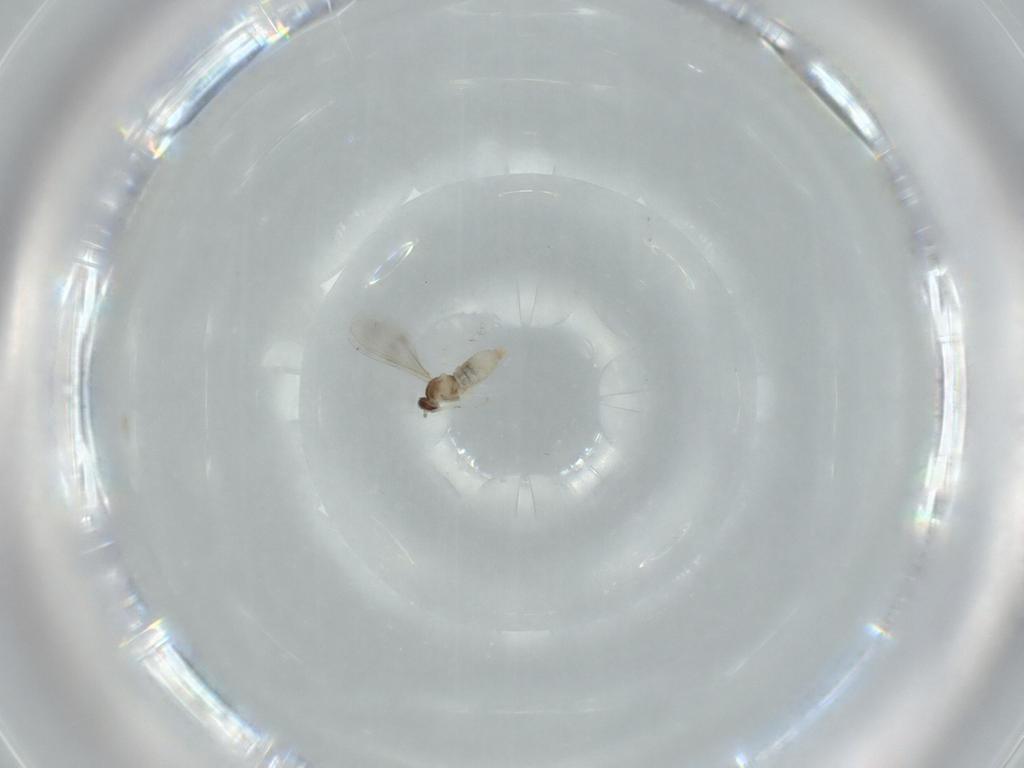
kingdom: Animalia
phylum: Arthropoda
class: Insecta
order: Diptera
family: Cecidomyiidae
